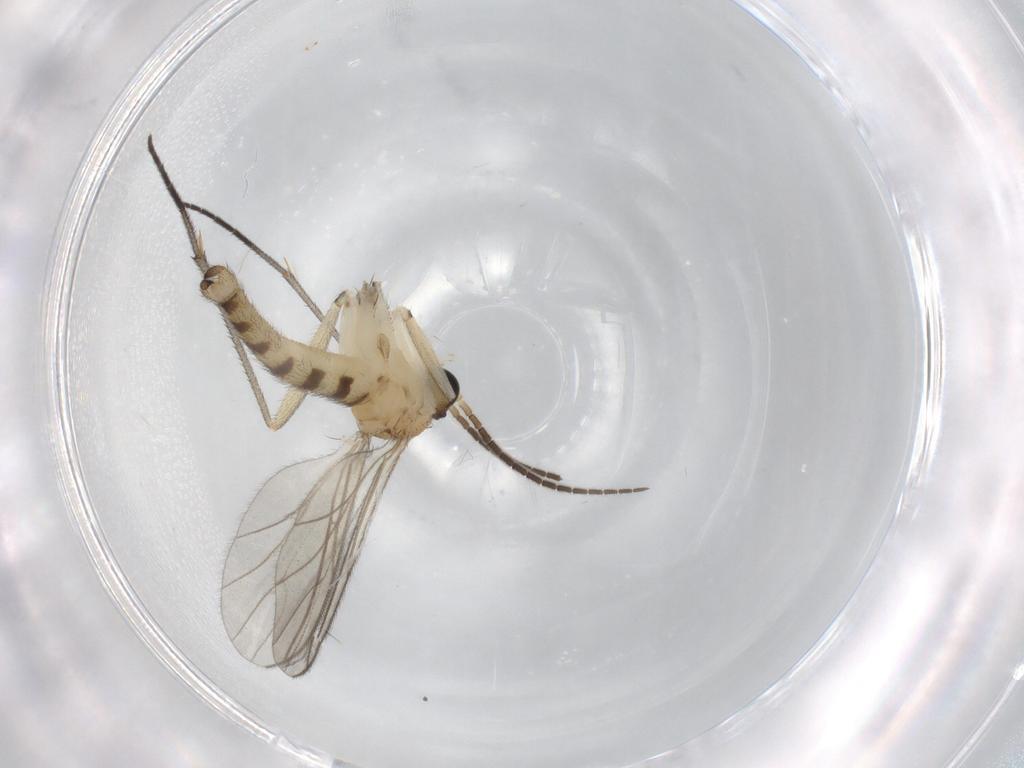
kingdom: Animalia
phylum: Arthropoda
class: Insecta
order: Diptera
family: Sciaridae
